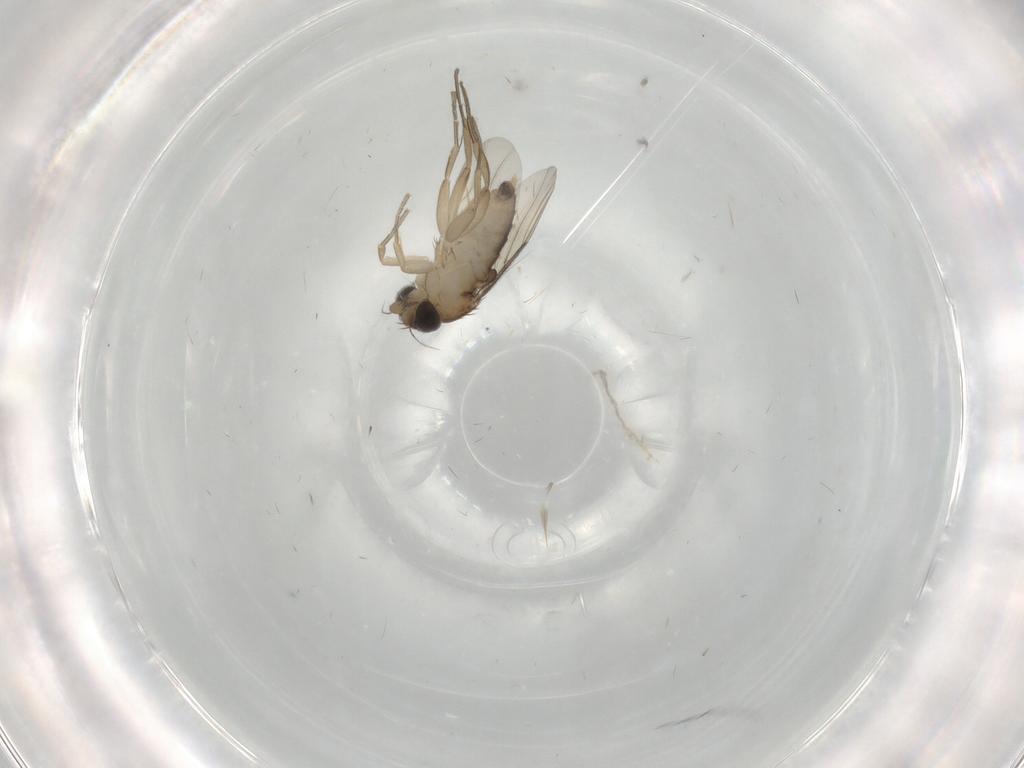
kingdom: Animalia
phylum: Arthropoda
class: Insecta
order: Diptera
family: Phoridae
